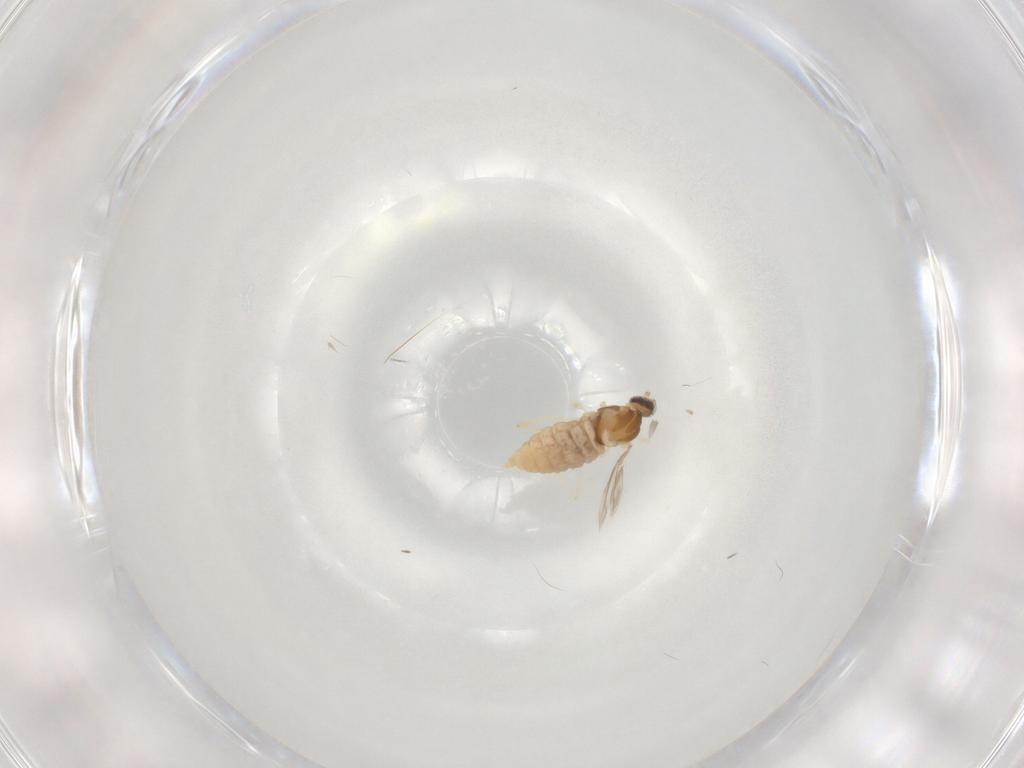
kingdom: Animalia
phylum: Arthropoda
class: Insecta
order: Diptera
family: Cecidomyiidae
